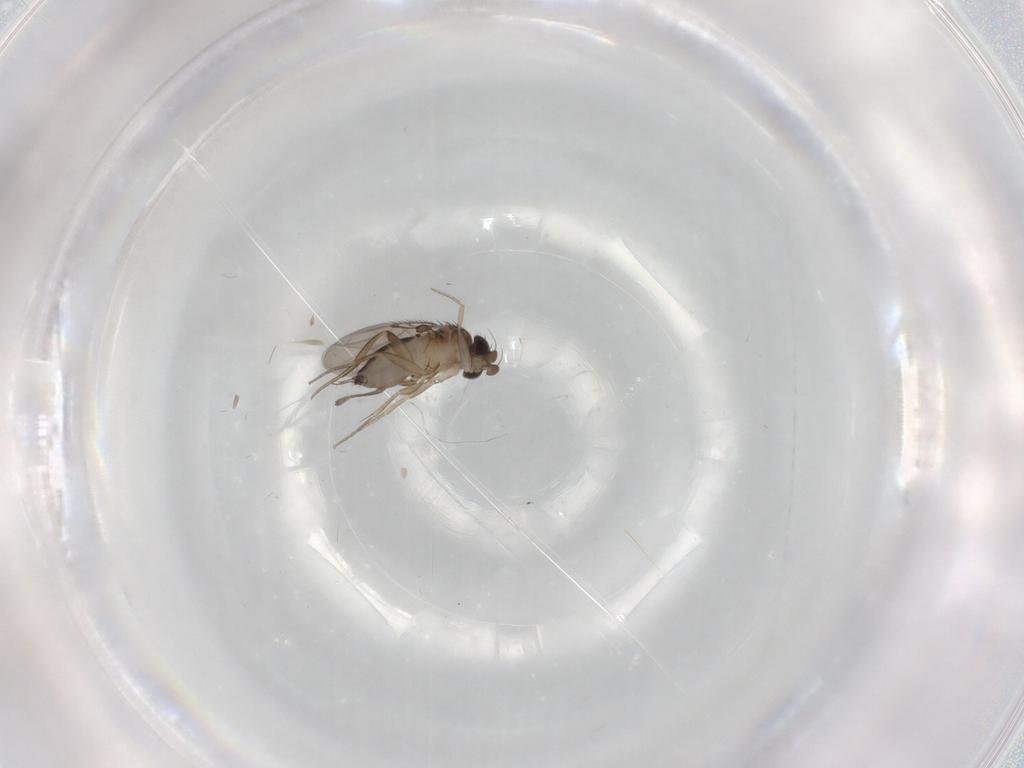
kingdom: Animalia
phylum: Arthropoda
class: Insecta
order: Diptera
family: Phoridae
